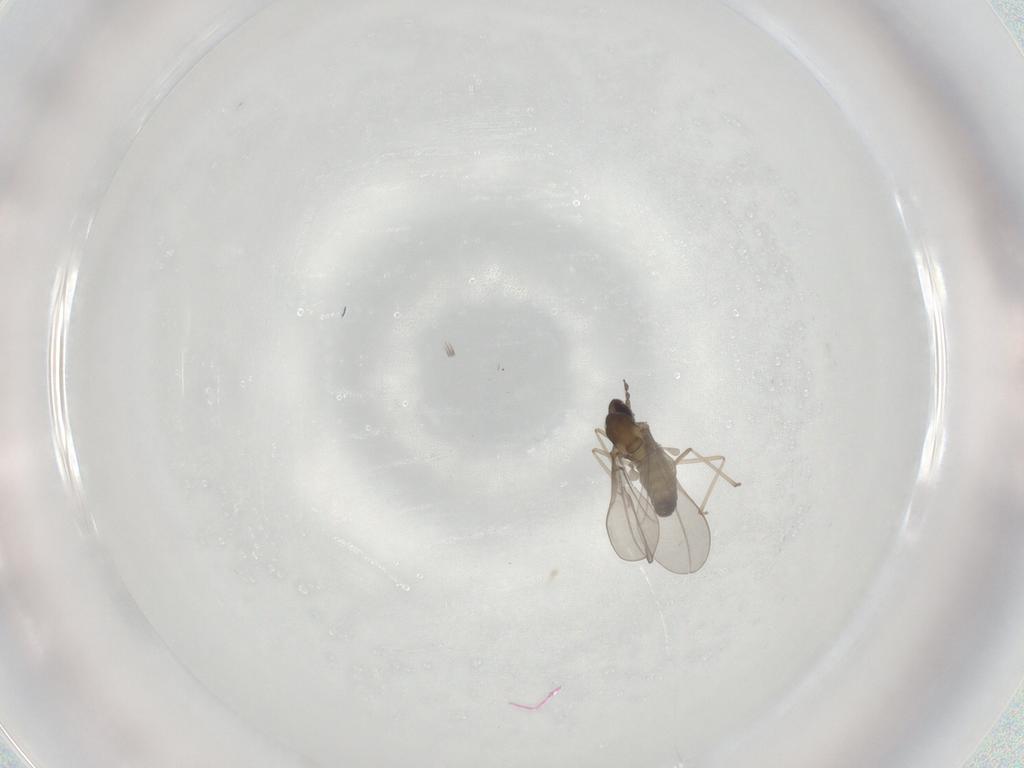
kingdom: Animalia
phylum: Arthropoda
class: Insecta
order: Diptera
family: Cecidomyiidae
